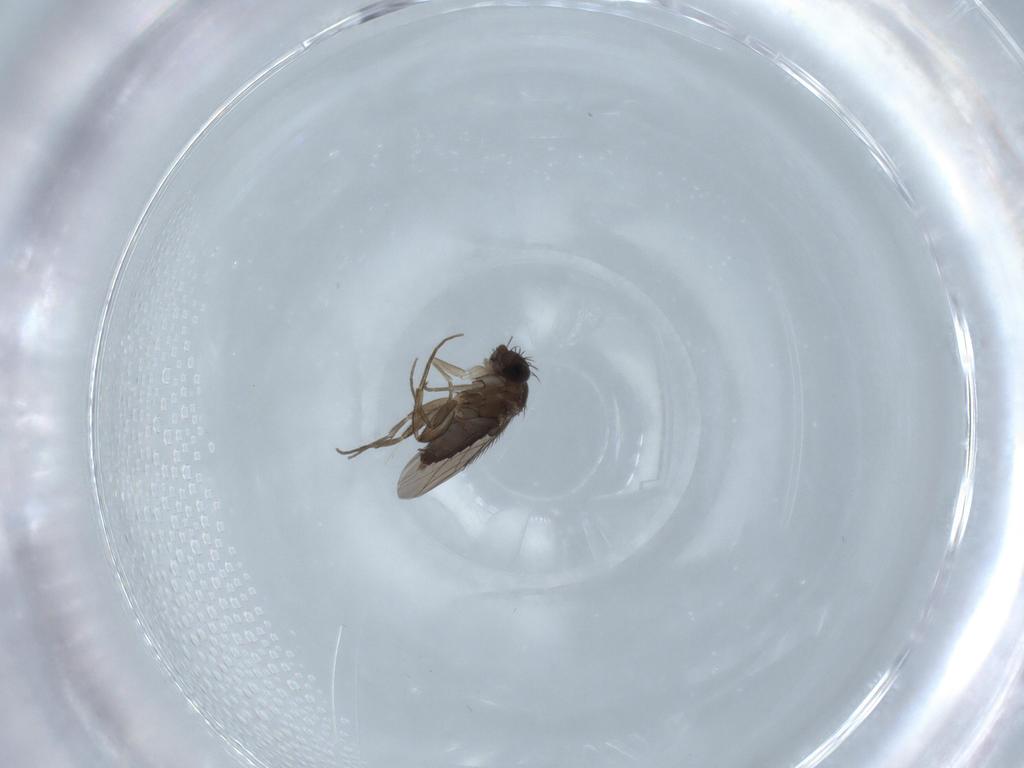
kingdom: Animalia
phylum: Arthropoda
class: Insecta
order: Diptera
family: Phoridae
